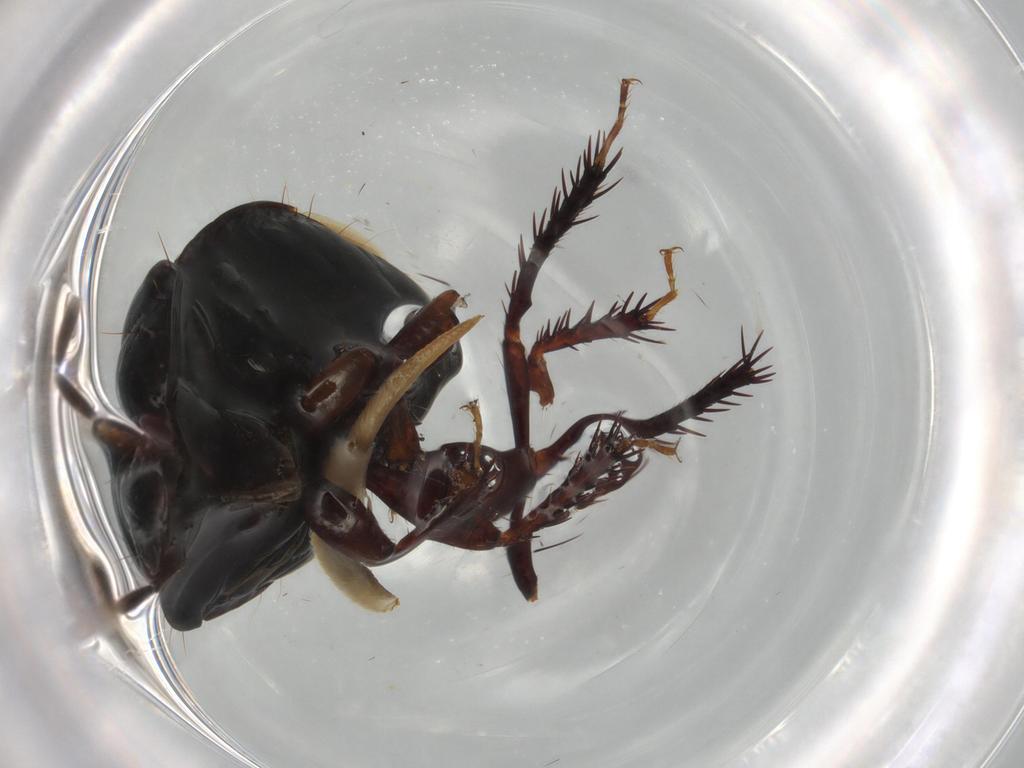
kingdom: Animalia
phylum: Arthropoda
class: Insecta
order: Hemiptera
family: Cydnidae
